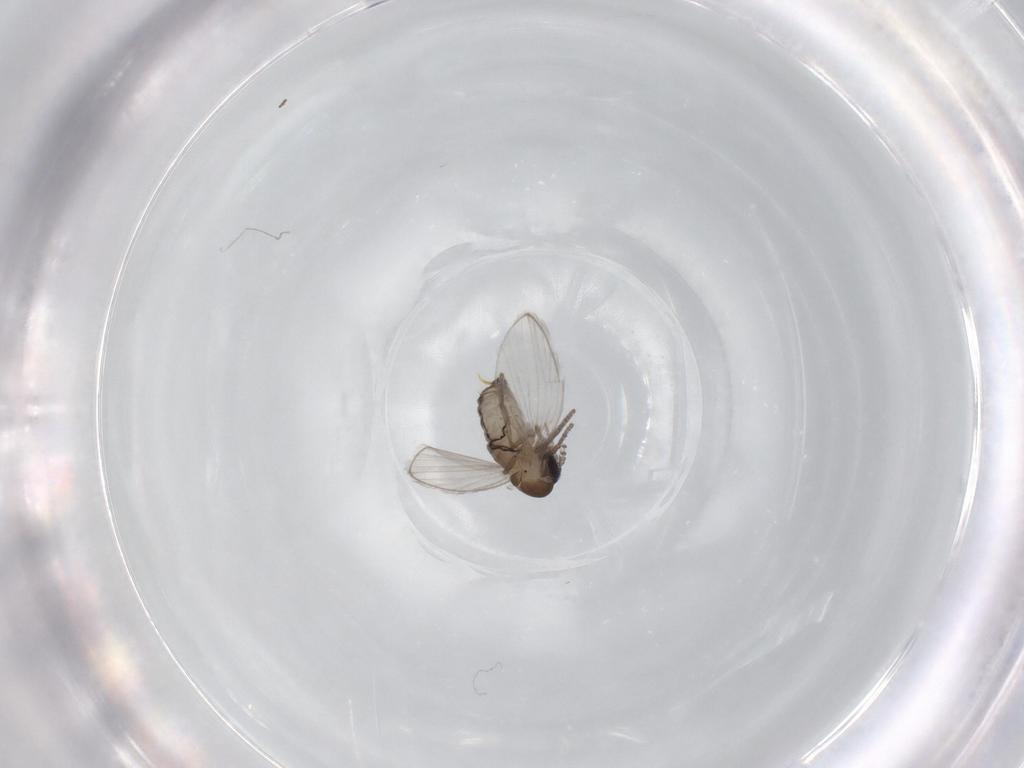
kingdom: Animalia
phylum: Arthropoda
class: Insecta
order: Diptera
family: Psychodidae
